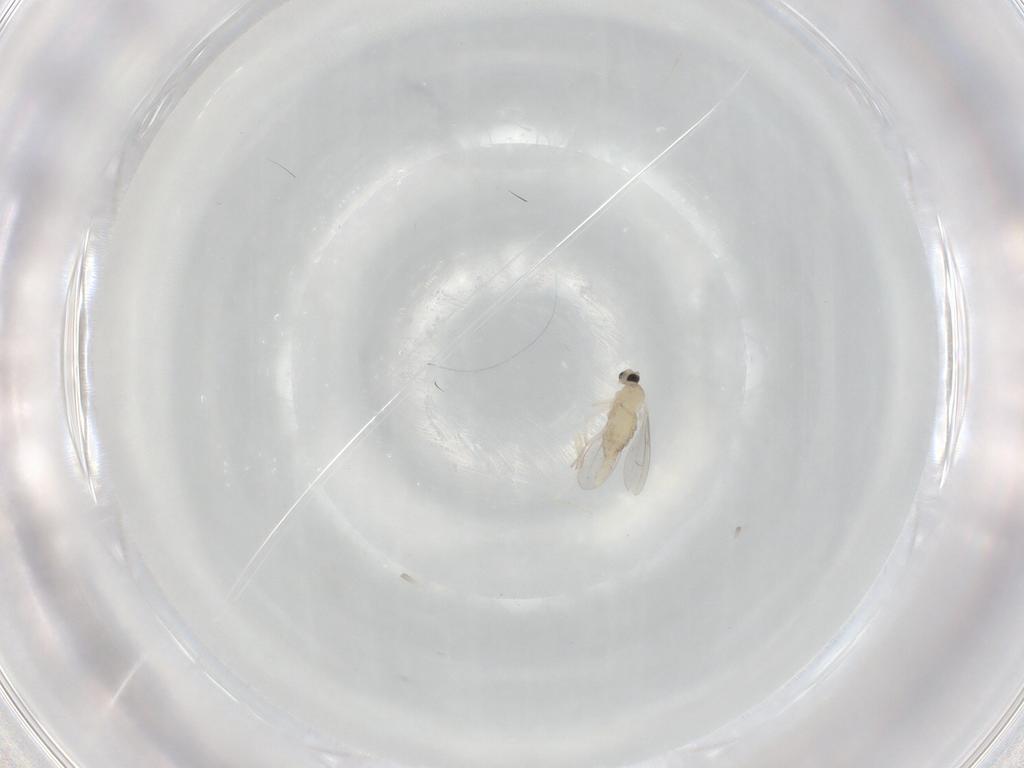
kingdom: Animalia
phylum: Arthropoda
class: Insecta
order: Diptera
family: Cecidomyiidae
